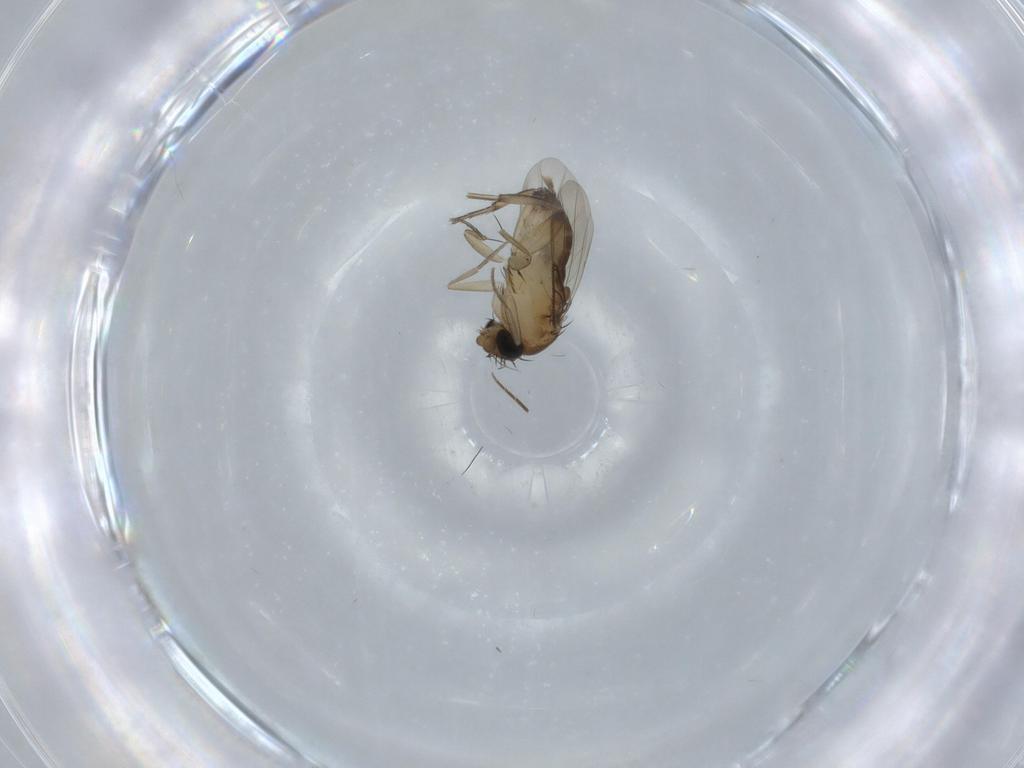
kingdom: Animalia
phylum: Arthropoda
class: Insecta
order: Diptera
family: Phoridae
